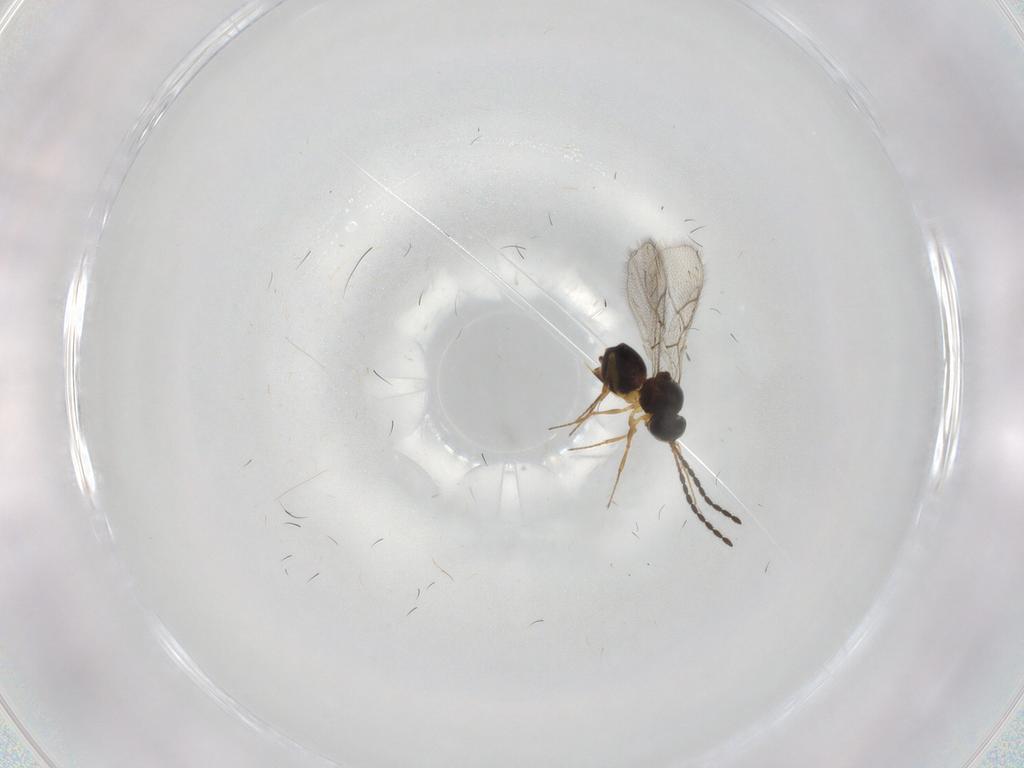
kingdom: Animalia
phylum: Arthropoda
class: Insecta
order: Hymenoptera
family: Figitidae
